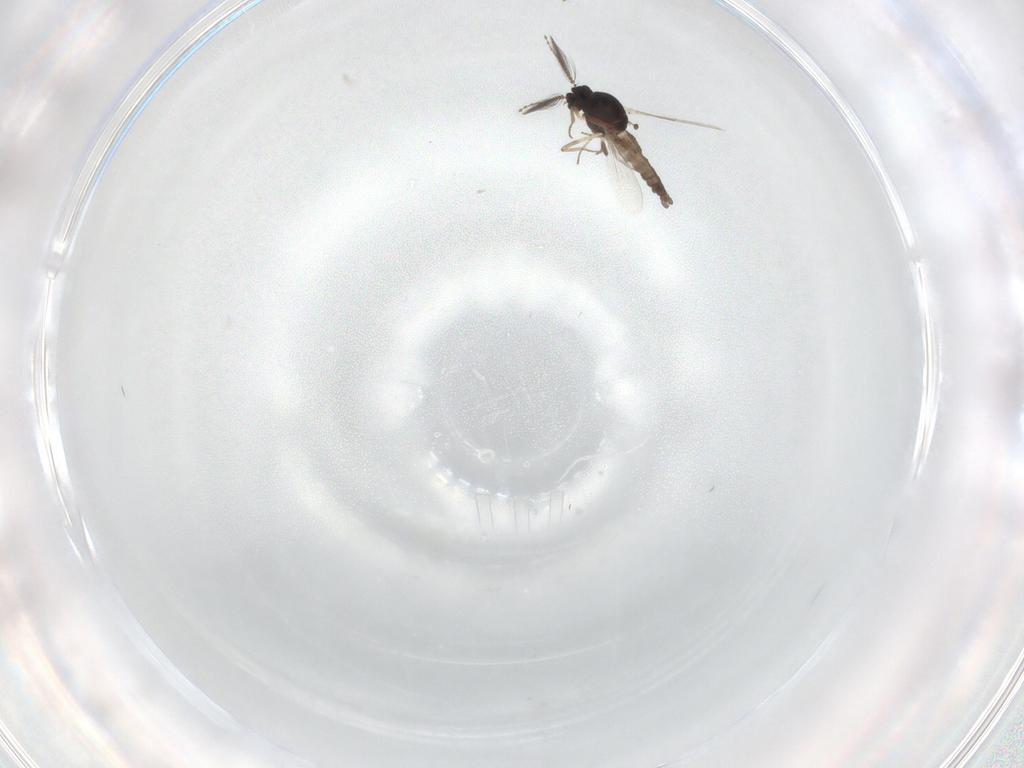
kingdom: Animalia
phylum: Arthropoda
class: Insecta
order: Diptera
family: Ceratopogonidae
